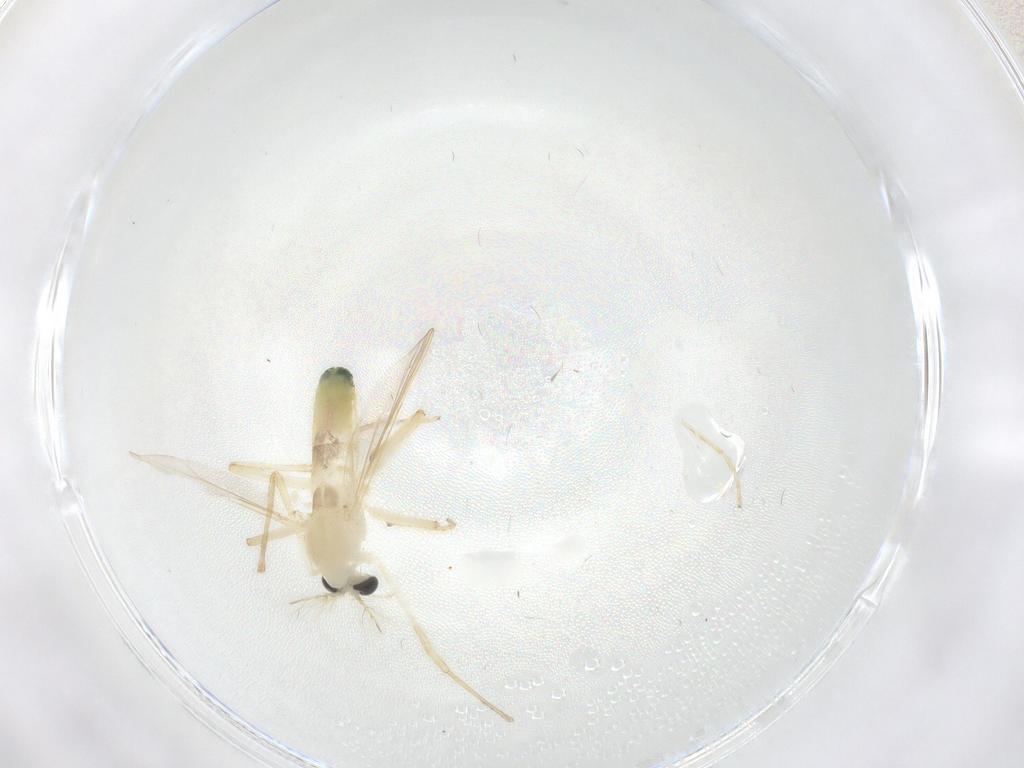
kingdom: Animalia
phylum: Arthropoda
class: Insecta
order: Diptera
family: Chironomidae
